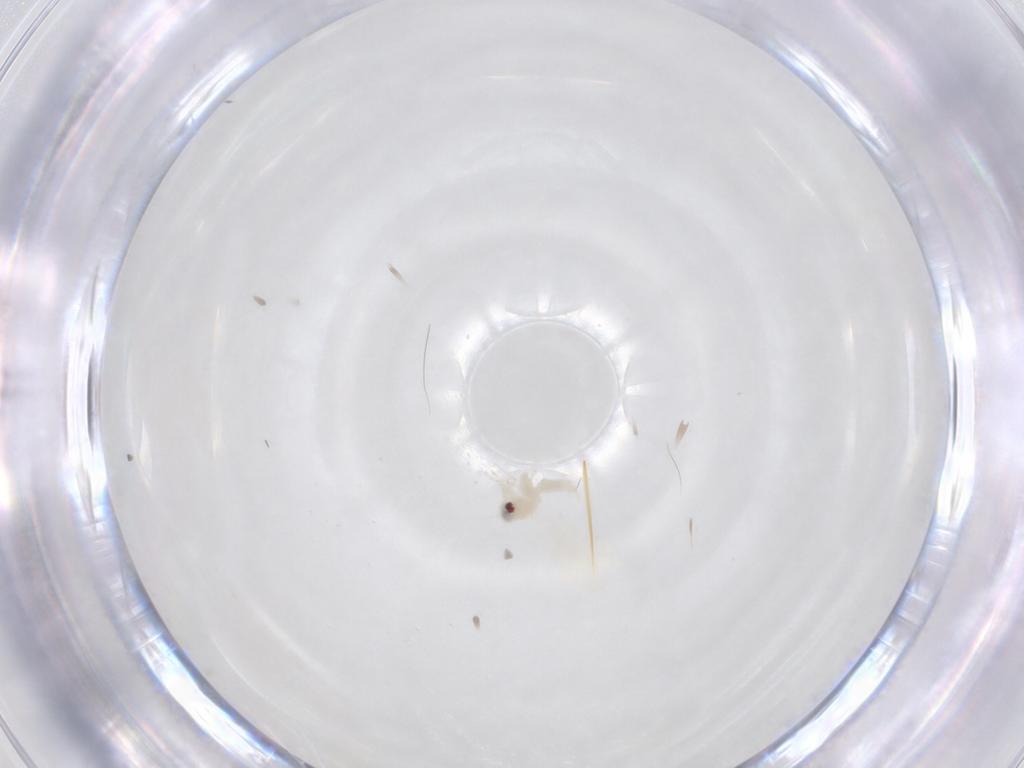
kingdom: Animalia
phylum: Arthropoda
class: Insecta
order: Hemiptera
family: Aleyrodidae
